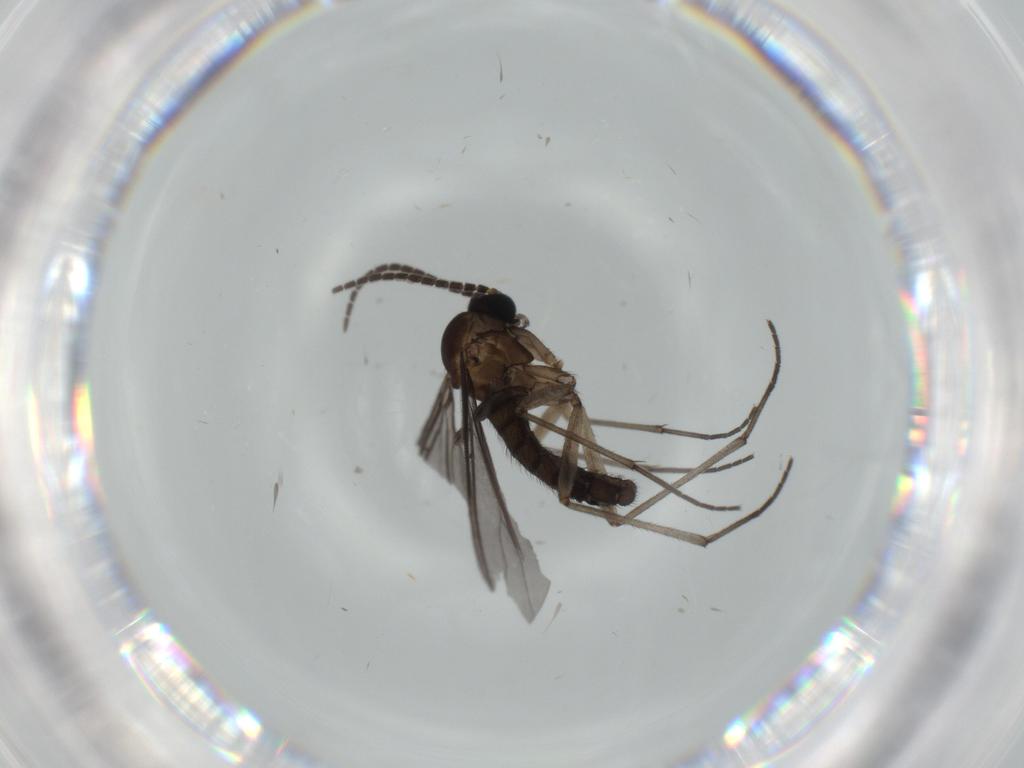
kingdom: Animalia
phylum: Arthropoda
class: Insecta
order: Diptera
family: Sciaridae
